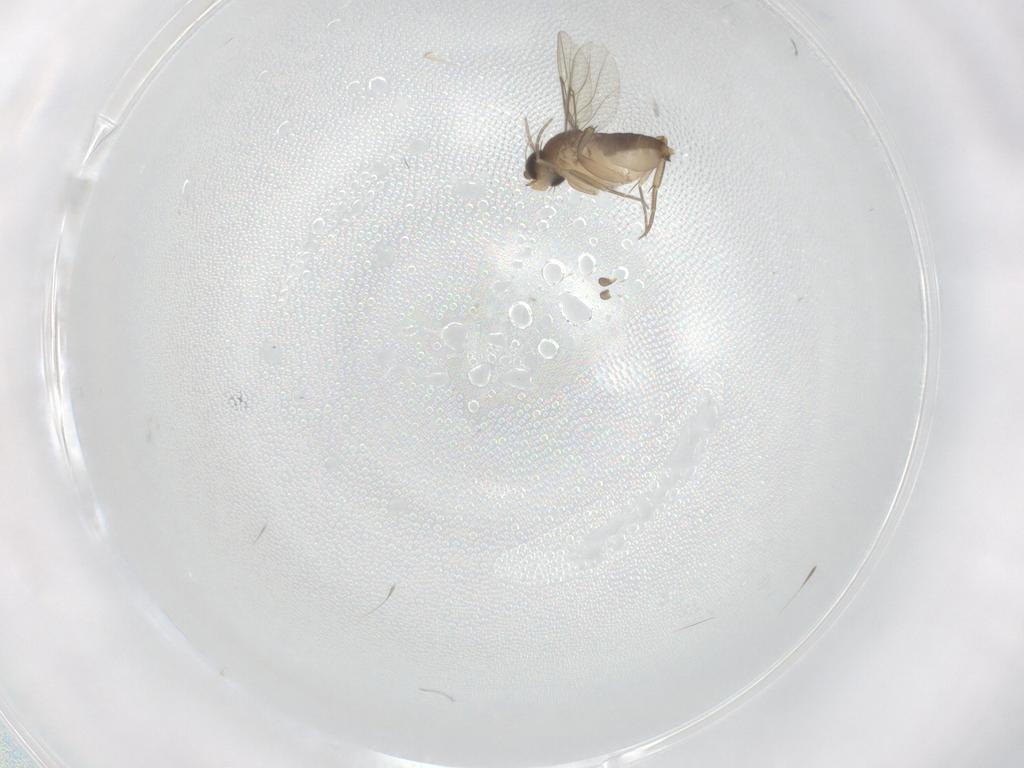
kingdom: Animalia
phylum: Arthropoda
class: Insecta
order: Diptera
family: Phoridae
